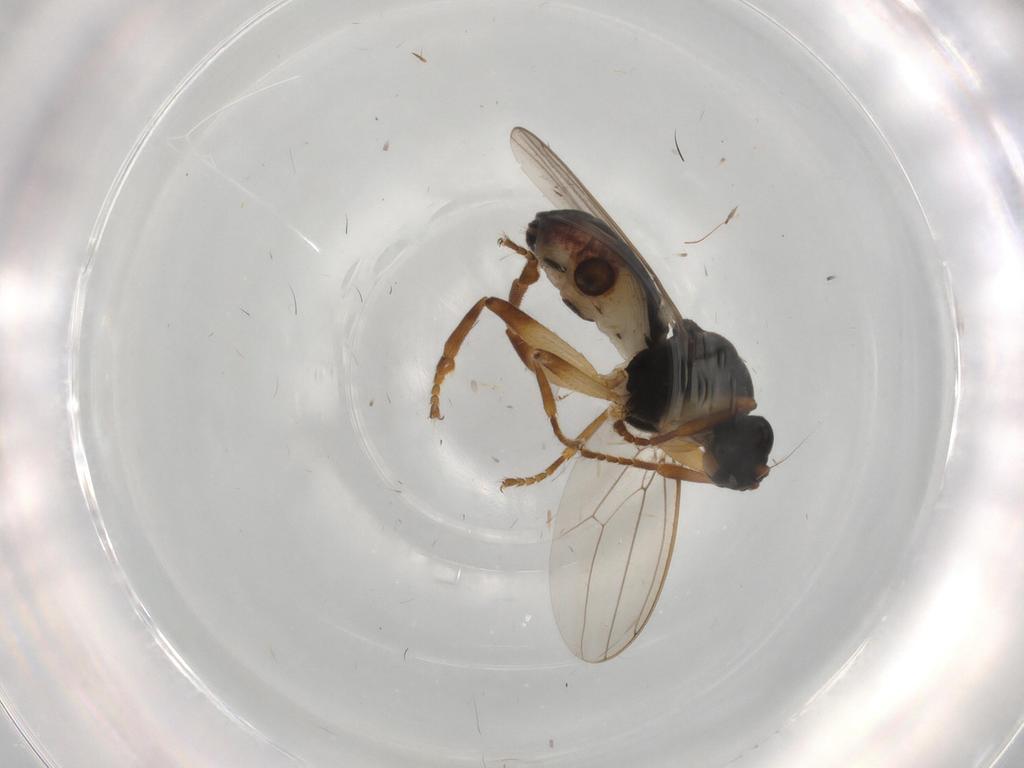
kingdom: Animalia
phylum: Arthropoda
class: Insecta
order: Diptera
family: Sphaeroceridae
